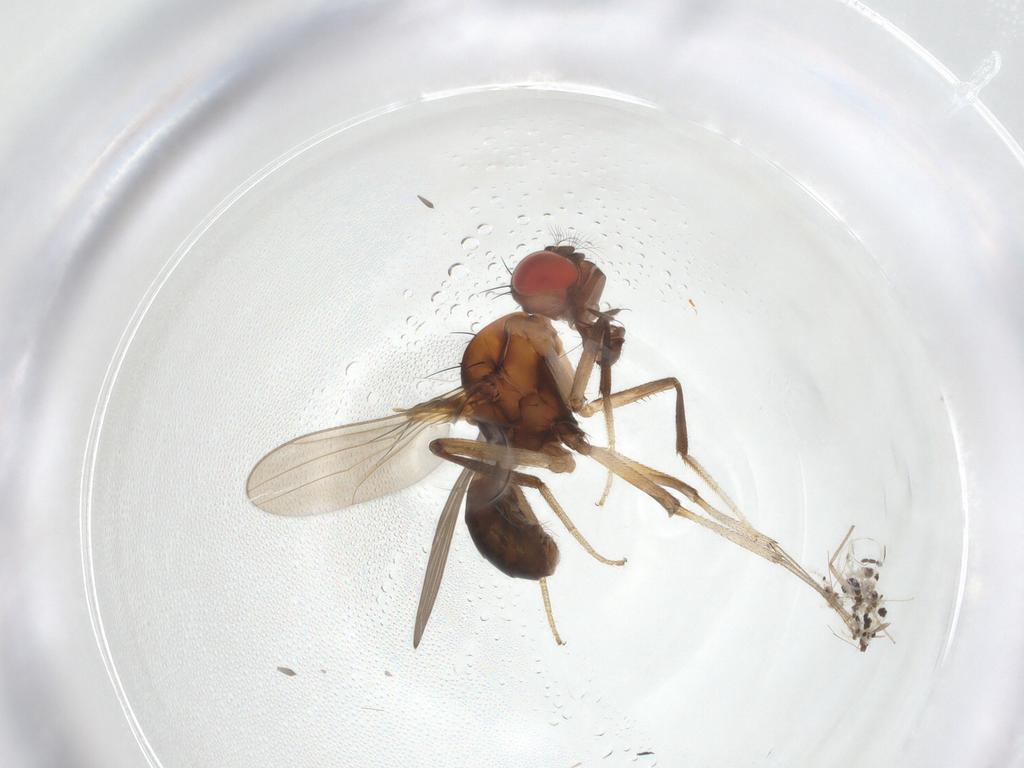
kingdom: Animalia
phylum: Arthropoda
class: Insecta
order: Diptera
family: Drosophilidae
